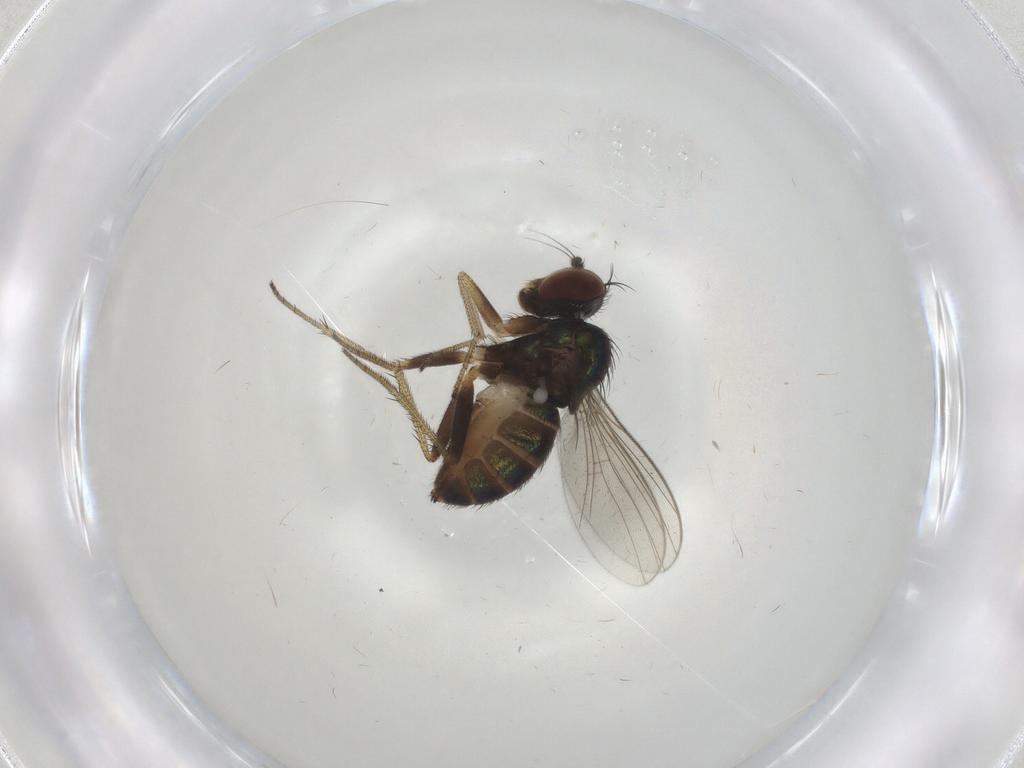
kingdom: Animalia
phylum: Arthropoda
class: Insecta
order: Diptera
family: Dolichopodidae
